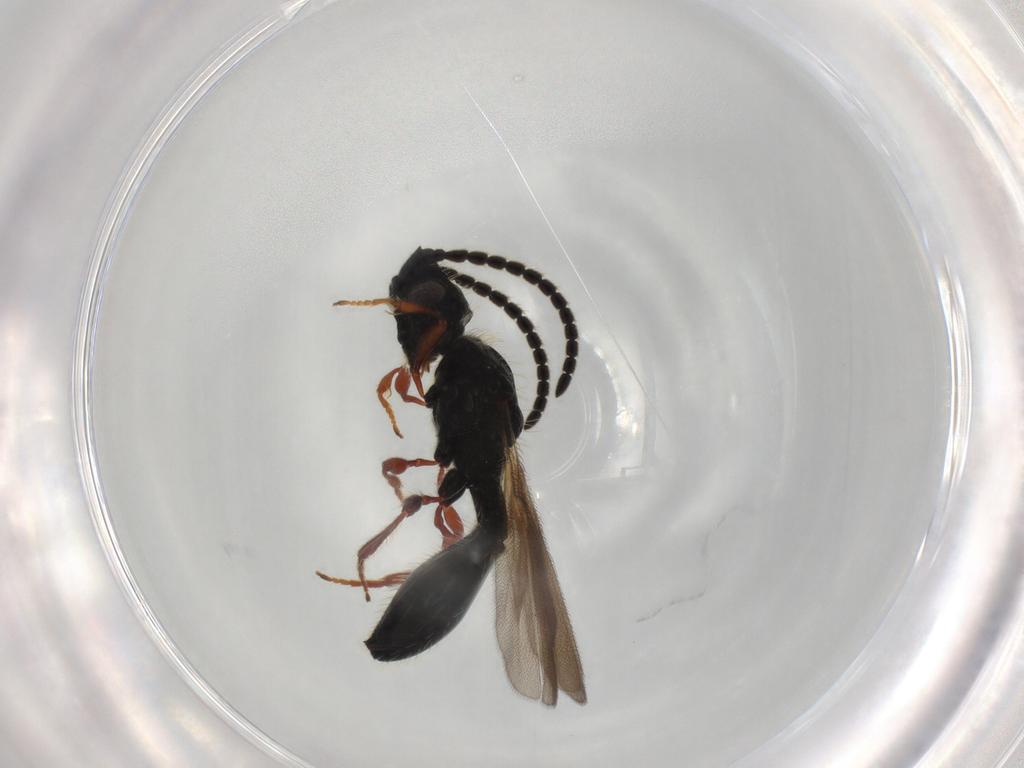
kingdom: Animalia
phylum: Arthropoda
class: Insecta
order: Hymenoptera
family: Diapriidae
